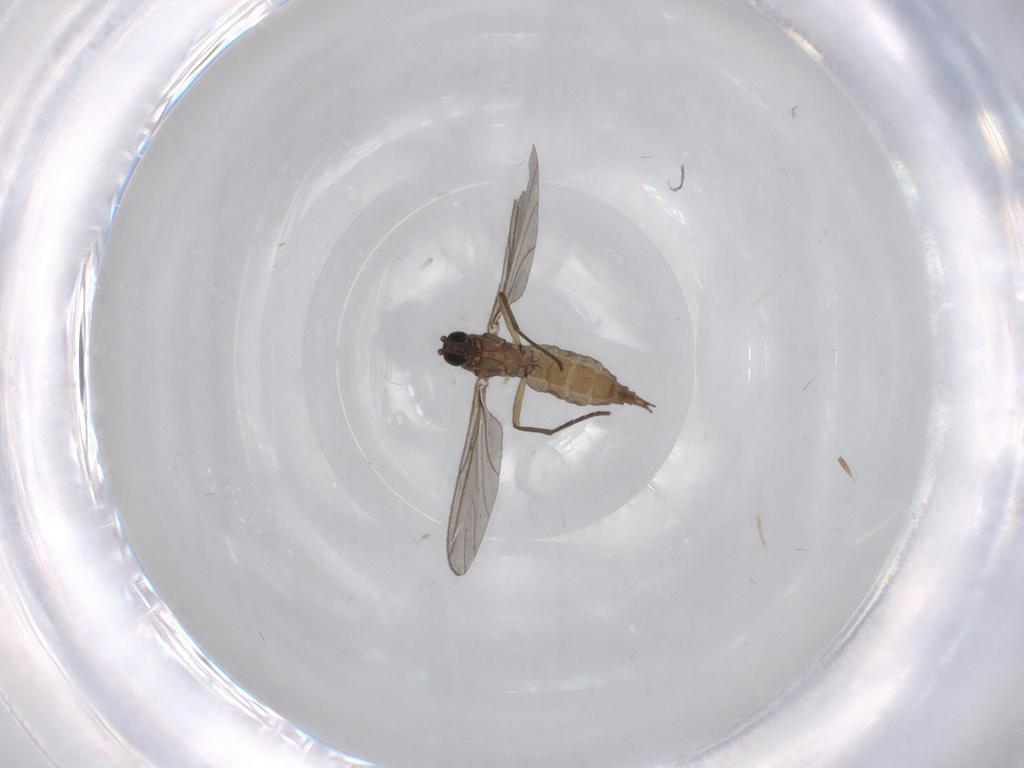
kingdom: Animalia
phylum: Arthropoda
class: Insecta
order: Diptera
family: Sciaridae
